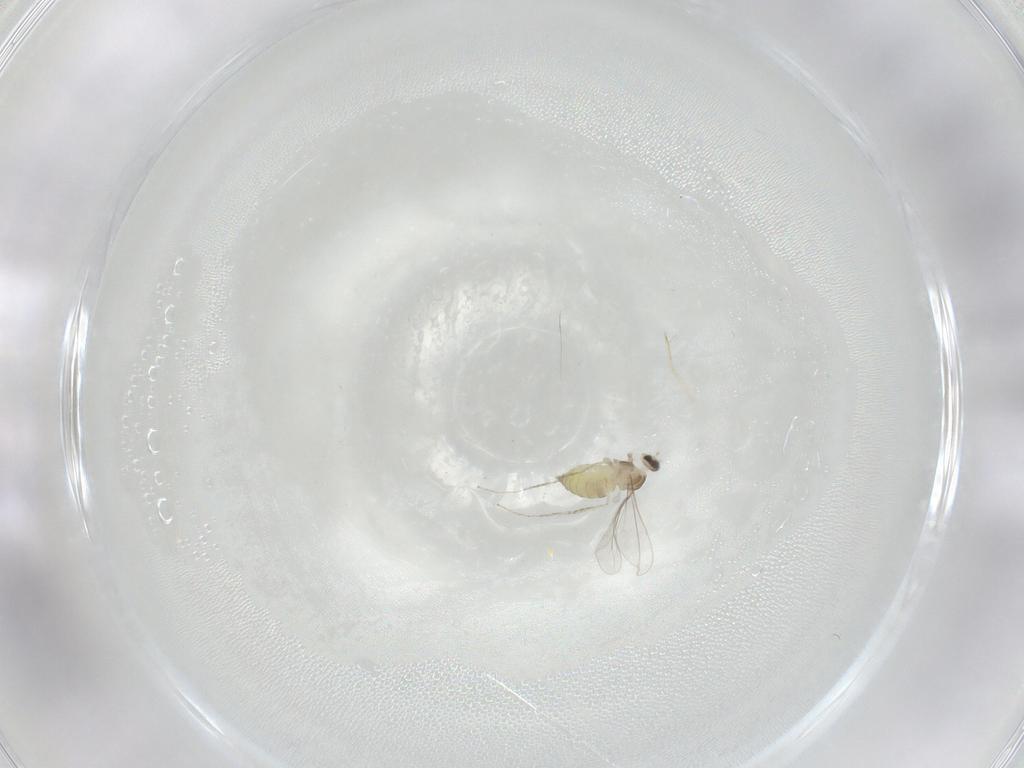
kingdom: Animalia
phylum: Arthropoda
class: Insecta
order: Diptera
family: Cecidomyiidae
